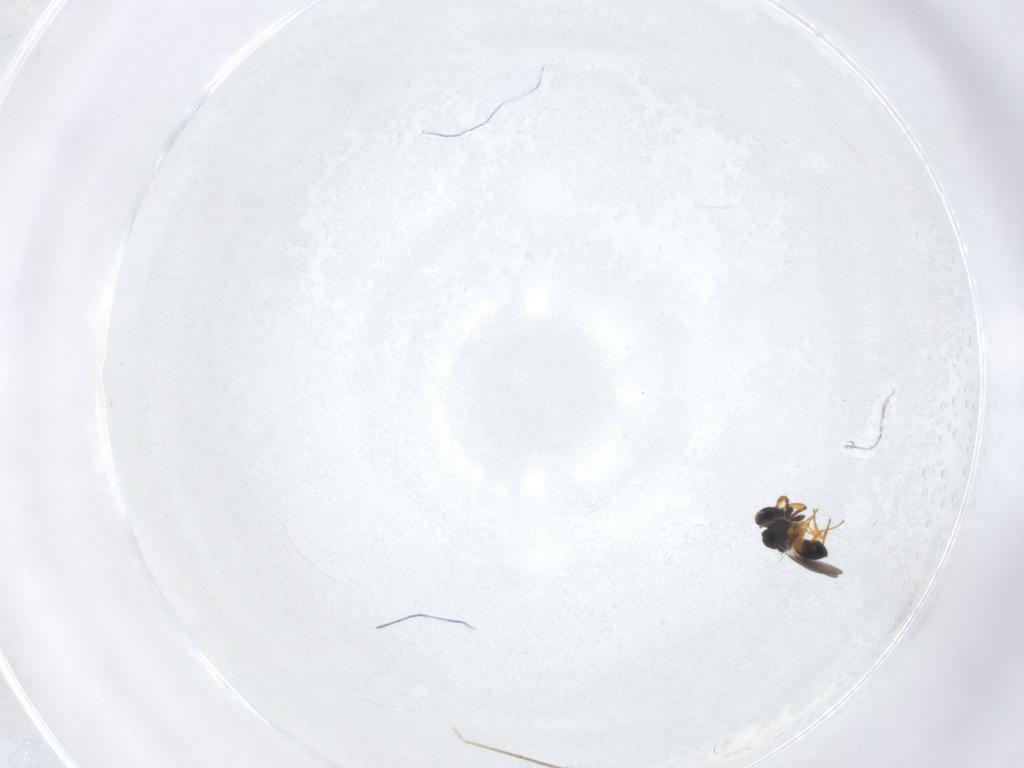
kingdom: Animalia
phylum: Arthropoda
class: Insecta
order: Hymenoptera
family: Platygastridae
